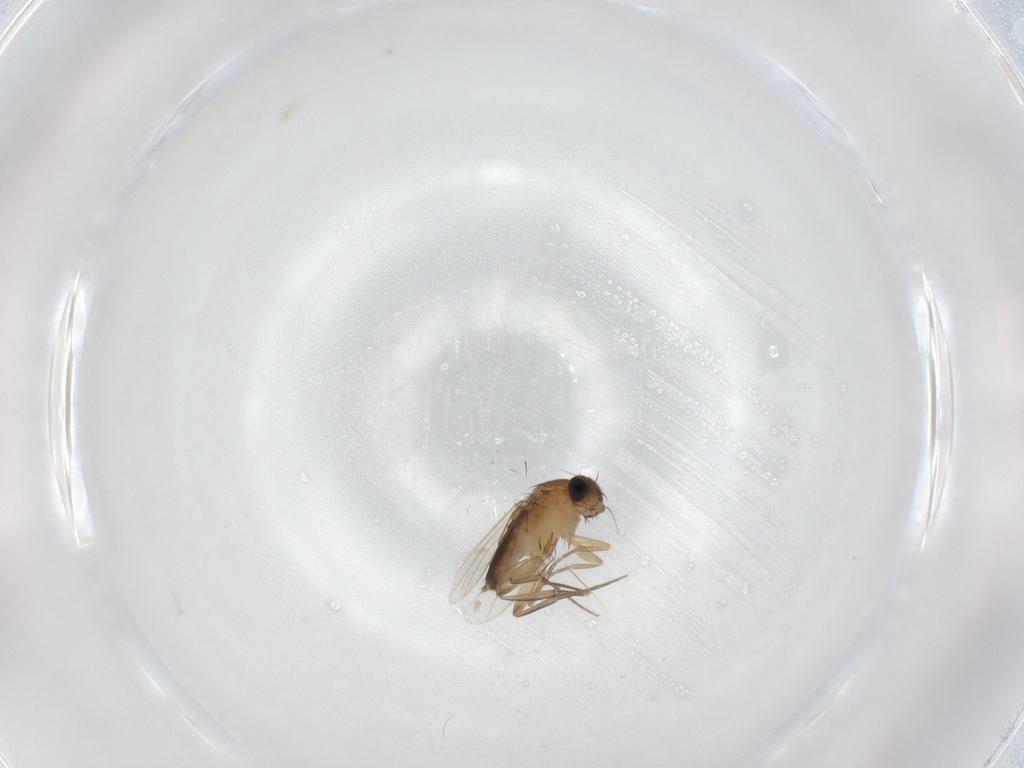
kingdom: Animalia
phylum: Arthropoda
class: Insecta
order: Diptera
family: Phoridae
